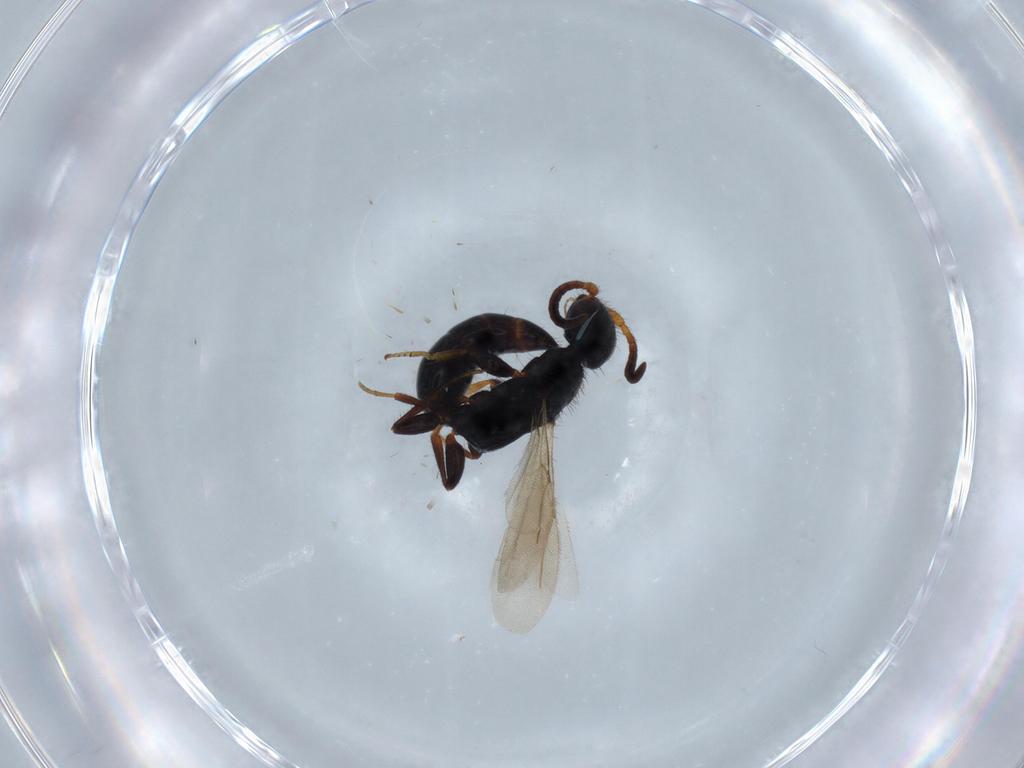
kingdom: Animalia
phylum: Arthropoda
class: Insecta
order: Hymenoptera
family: Bethylidae
